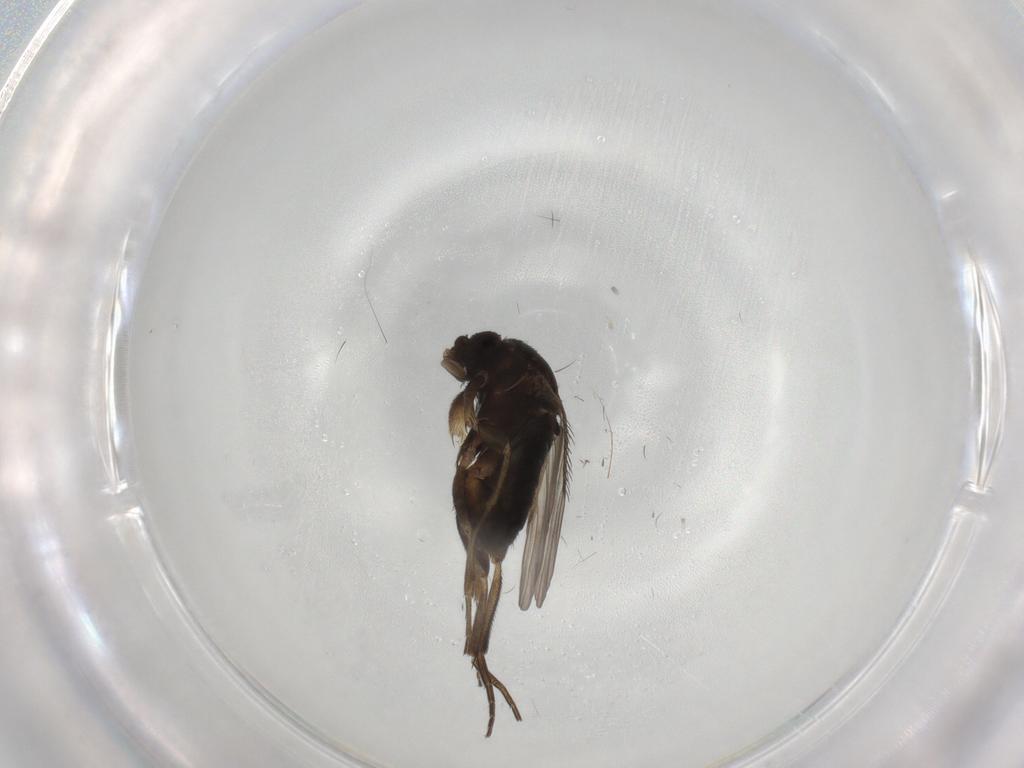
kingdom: Animalia
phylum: Arthropoda
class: Insecta
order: Diptera
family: Phoridae
